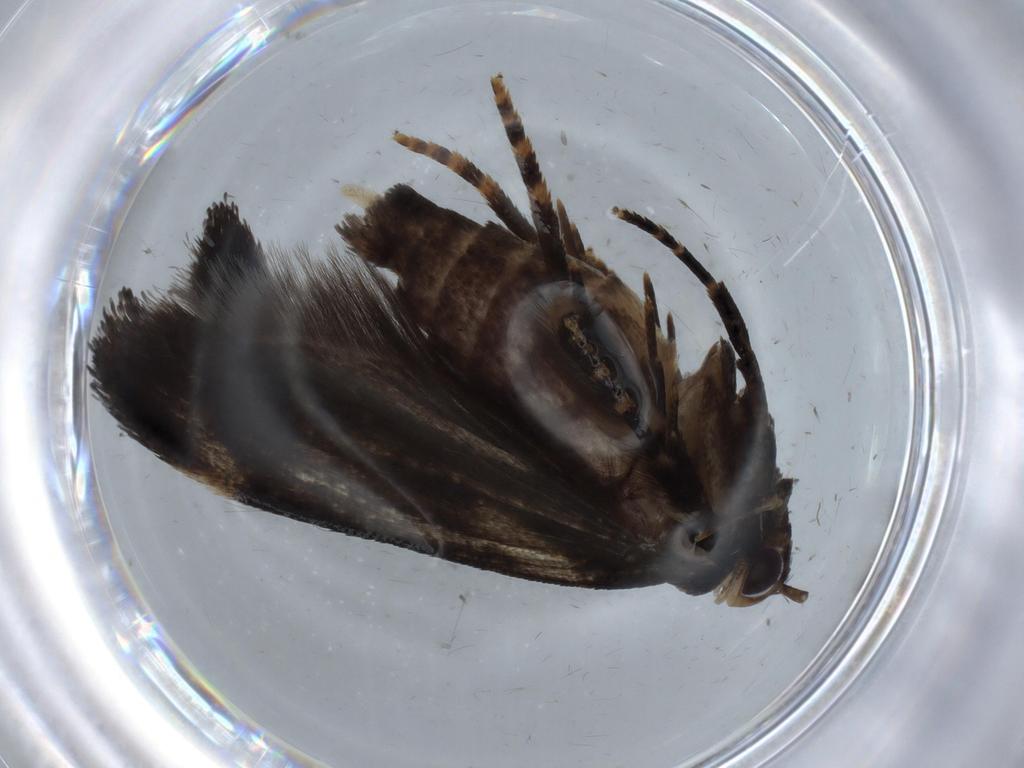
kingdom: Animalia
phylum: Arthropoda
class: Insecta
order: Lepidoptera
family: Gelechiidae
